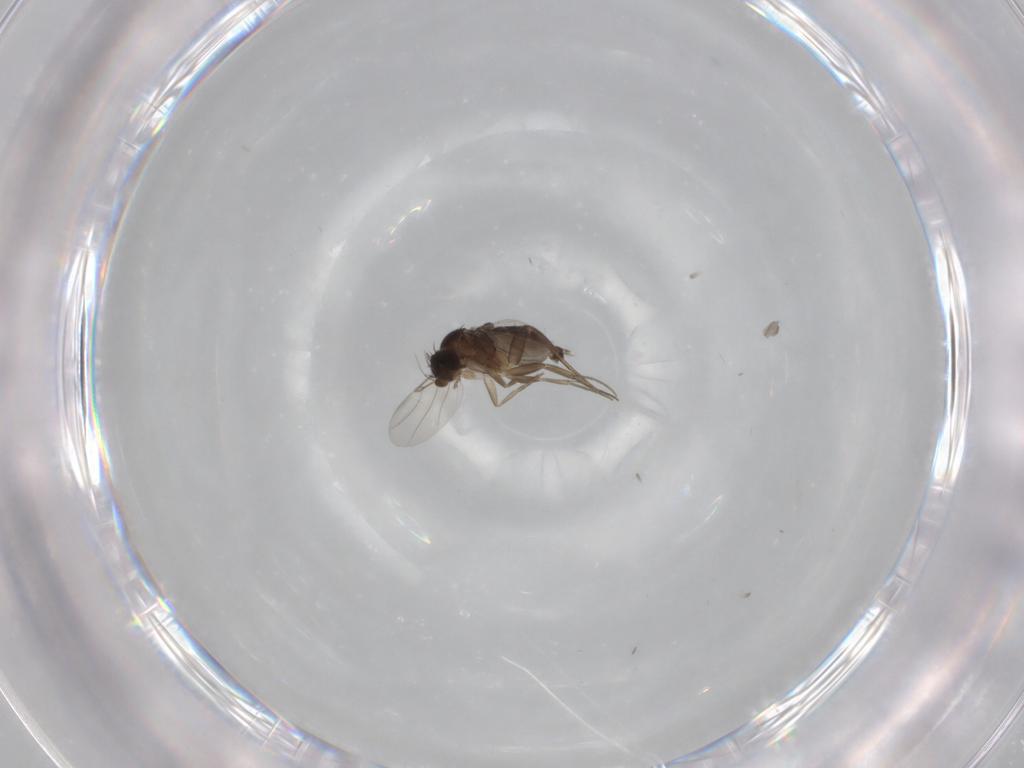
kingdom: Animalia
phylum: Arthropoda
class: Insecta
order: Diptera
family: Phoridae
